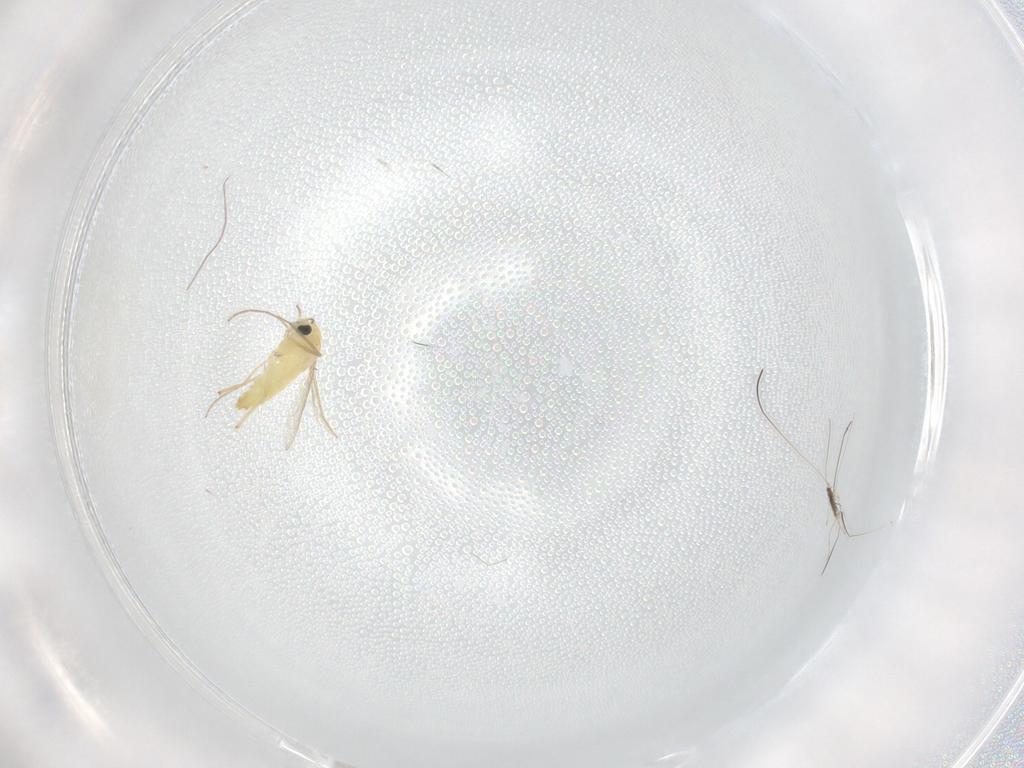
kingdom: Animalia
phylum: Arthropoda
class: Insecta
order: Diptera
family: Chironomidae
